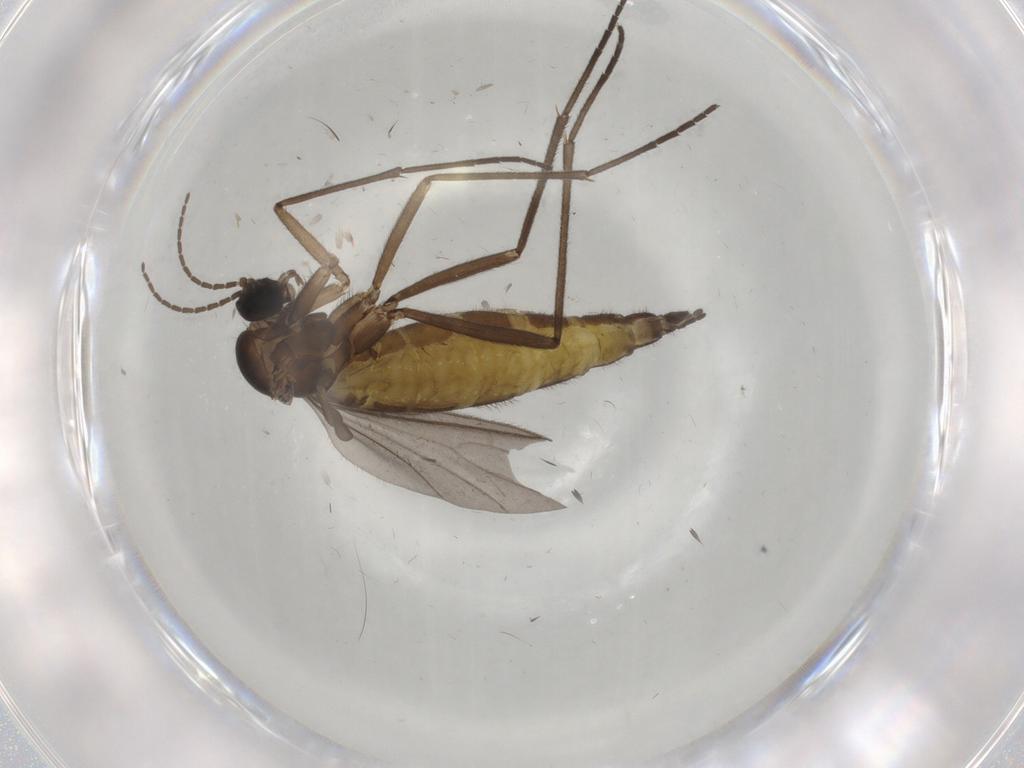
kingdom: Animalia
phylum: Arthropoda
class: Insecta
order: Diptera
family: Sciaridae
